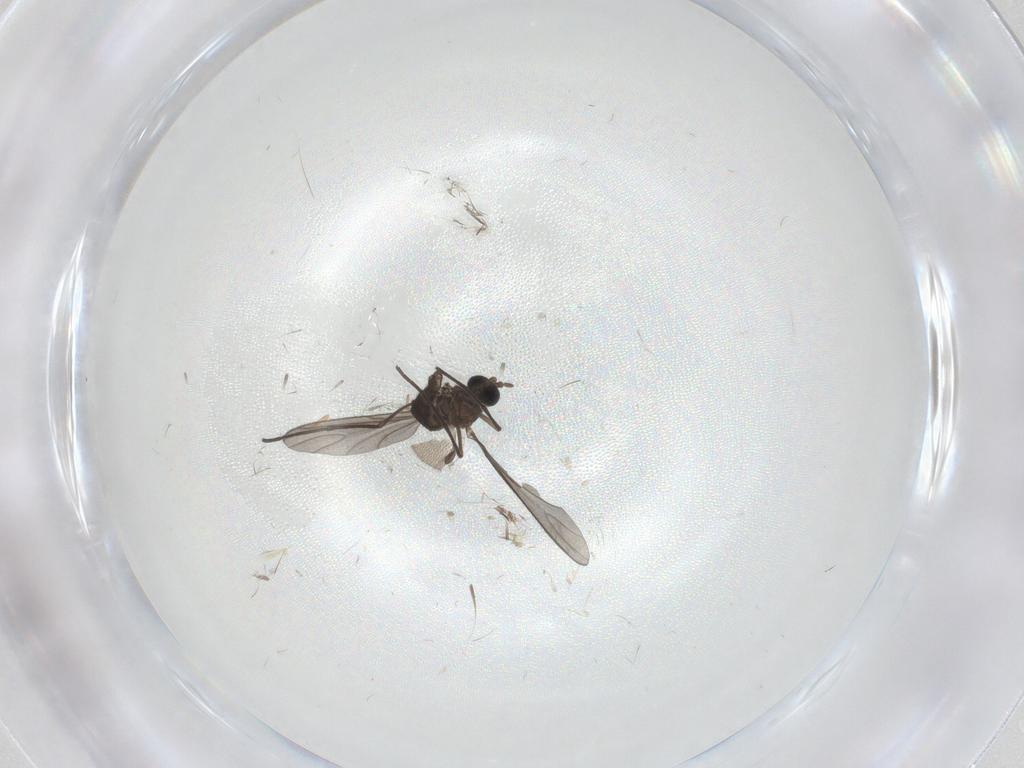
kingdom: Animalia
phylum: Arthropoda
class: Insecta
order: Diptera
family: Sciaridae
